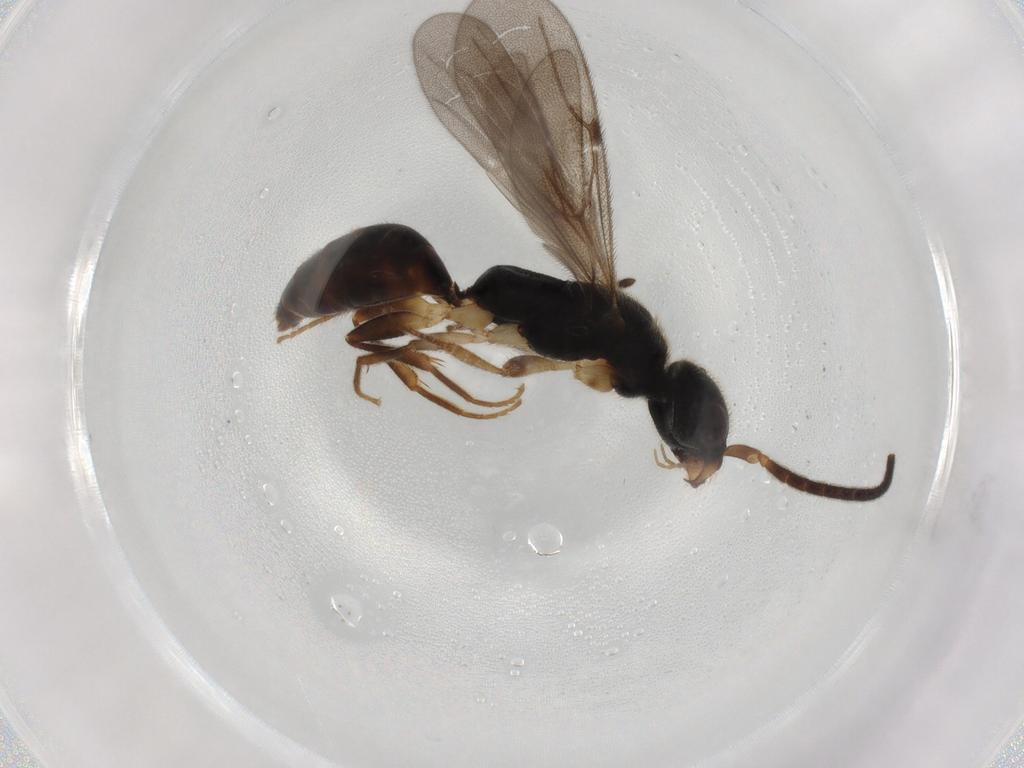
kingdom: Animalia
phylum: Arthropoda
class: Insecta
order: Hymenoptera
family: Bethylidae
